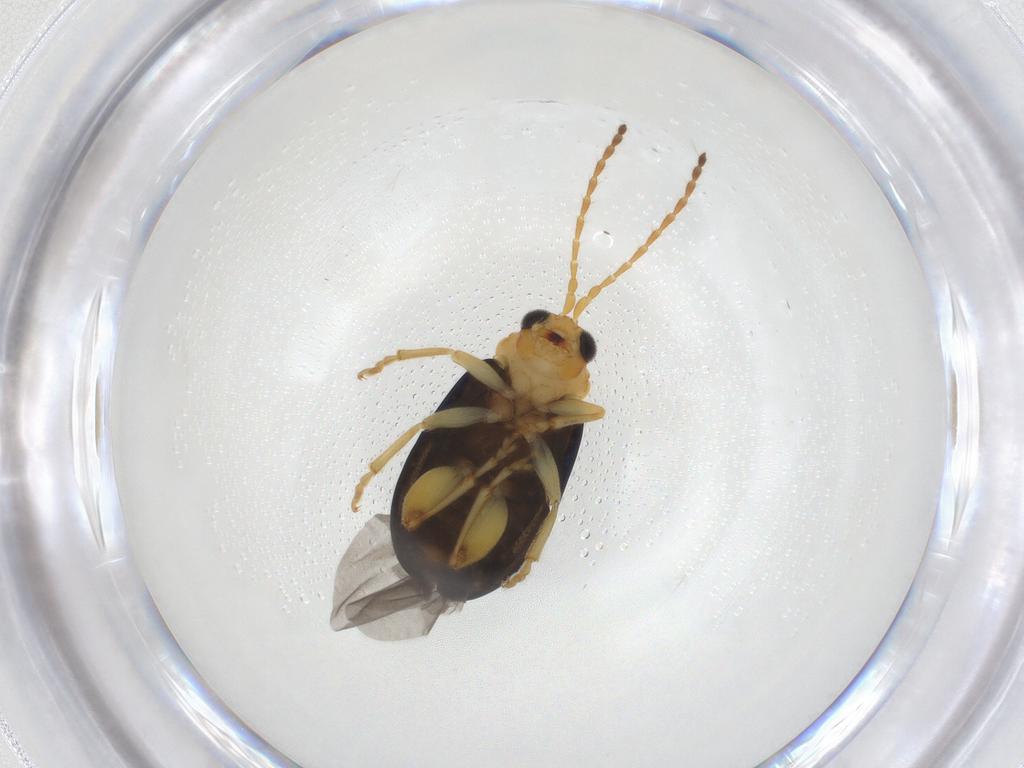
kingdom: Animalia
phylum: Arthropoda
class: Insecta
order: Coleoptera
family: Chrysomelidae
